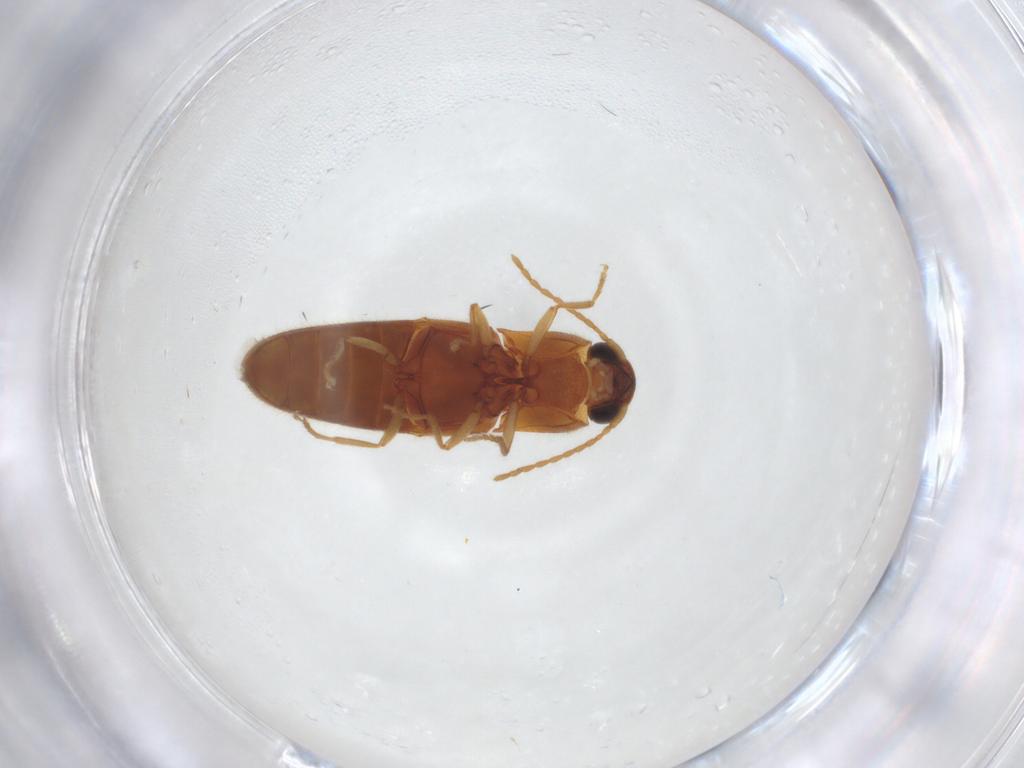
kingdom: Animalia
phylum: Arthropoda
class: Insecta
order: Coleoptera
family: Elateridae
